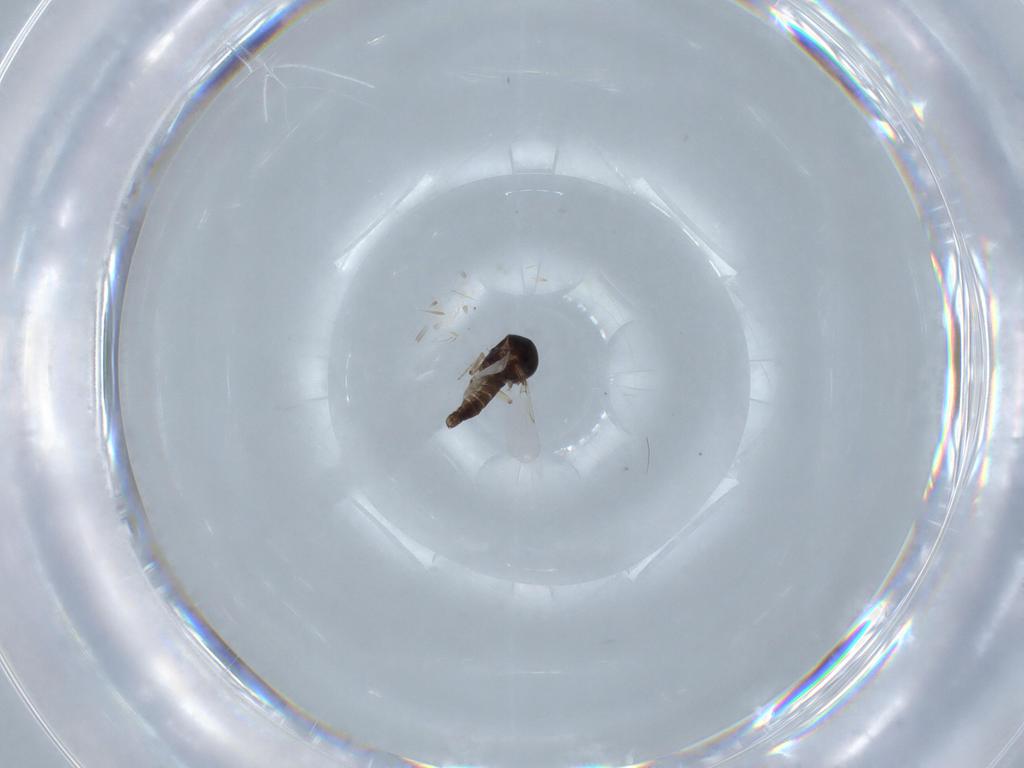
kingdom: Animalia
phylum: Arthropoda
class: Insecta
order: Diptera
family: Ceratopogonidae
